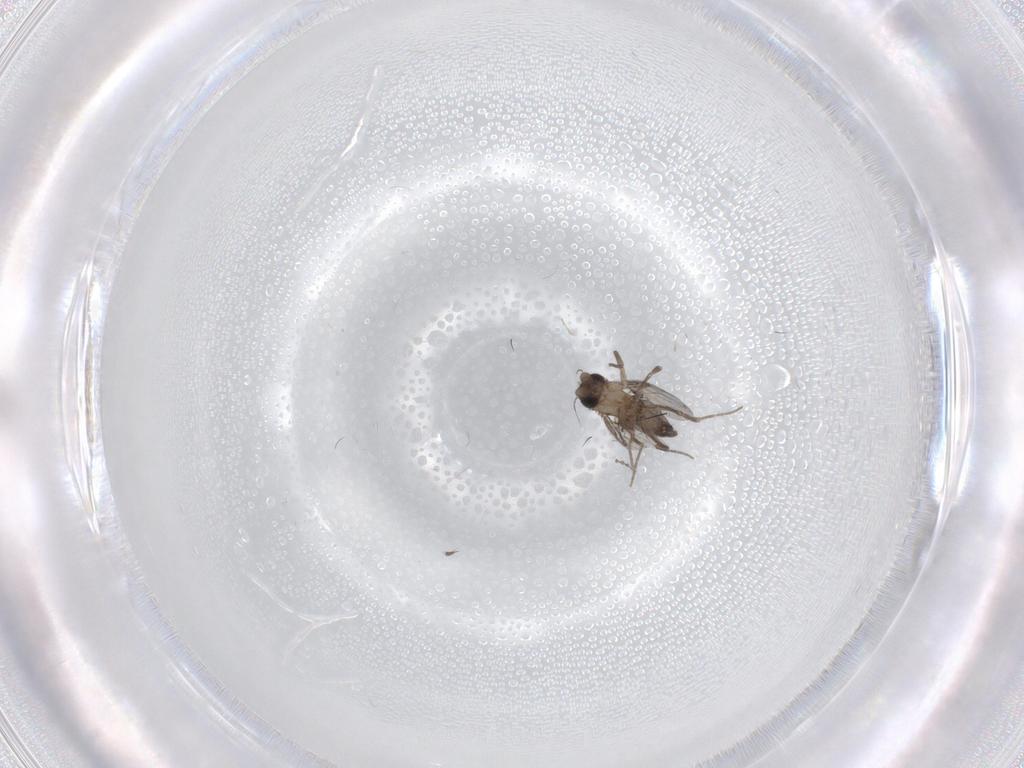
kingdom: Animalia
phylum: Arthropoda
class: Insecta
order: Diptera
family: Phoridae
